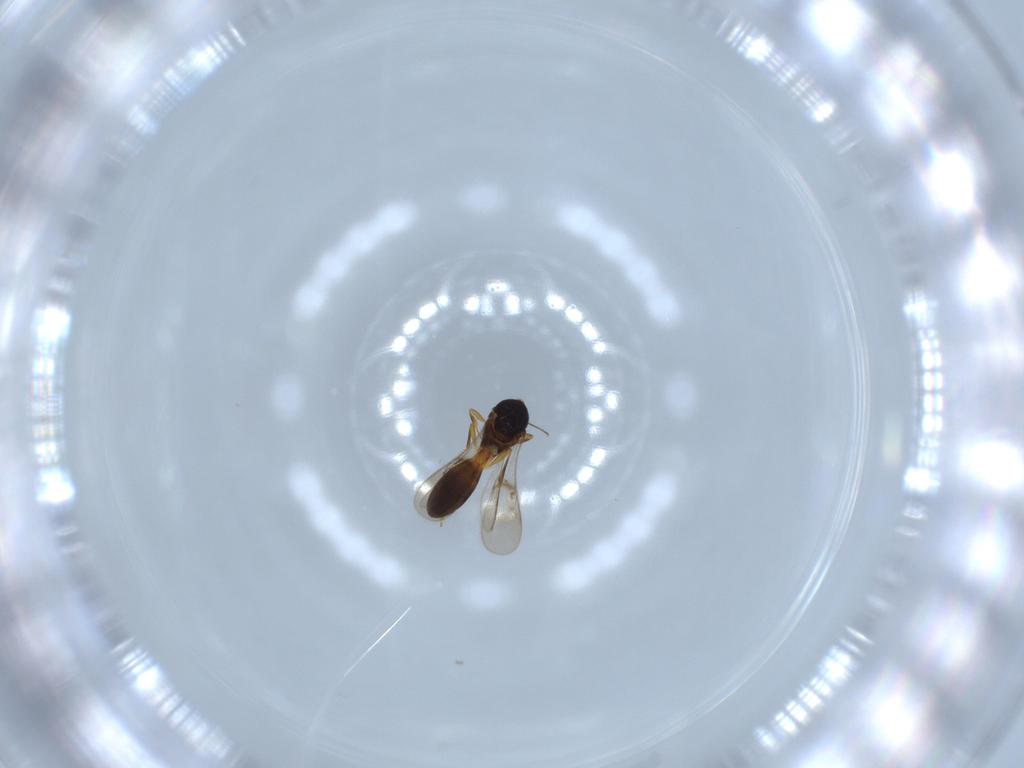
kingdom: Animalia
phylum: Arthropoda
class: Insecta
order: Hymenoptera
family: Scelionidae
